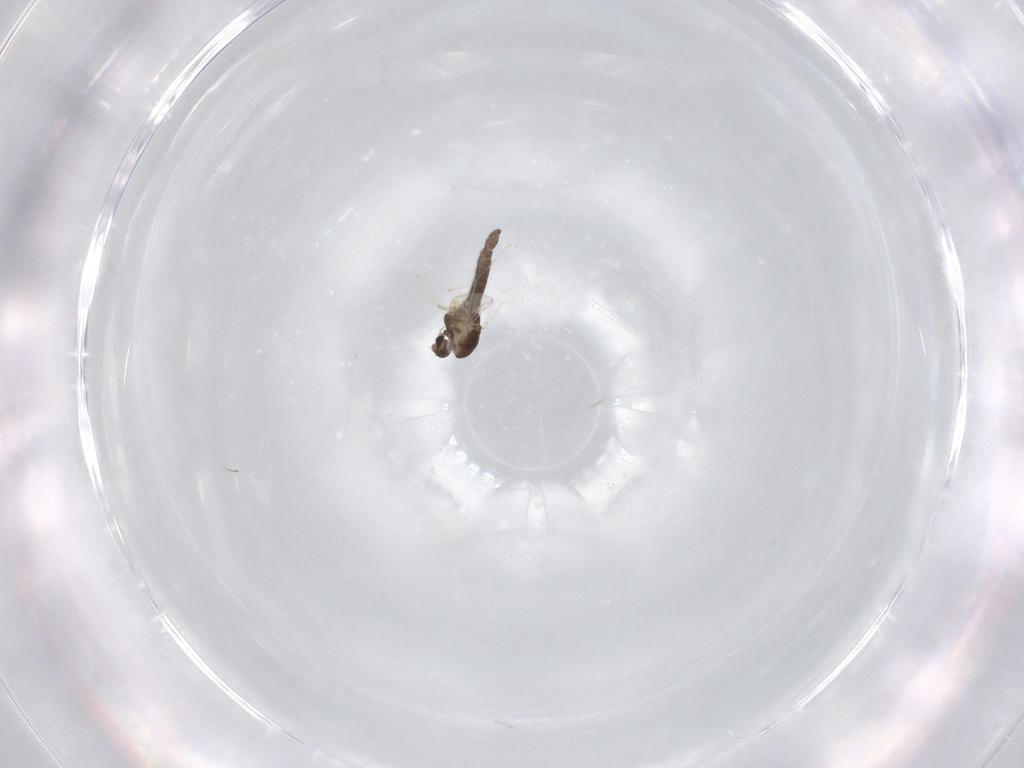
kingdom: Animalia
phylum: Arthropoda
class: Insecta
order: Diptera
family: Chironomidae
